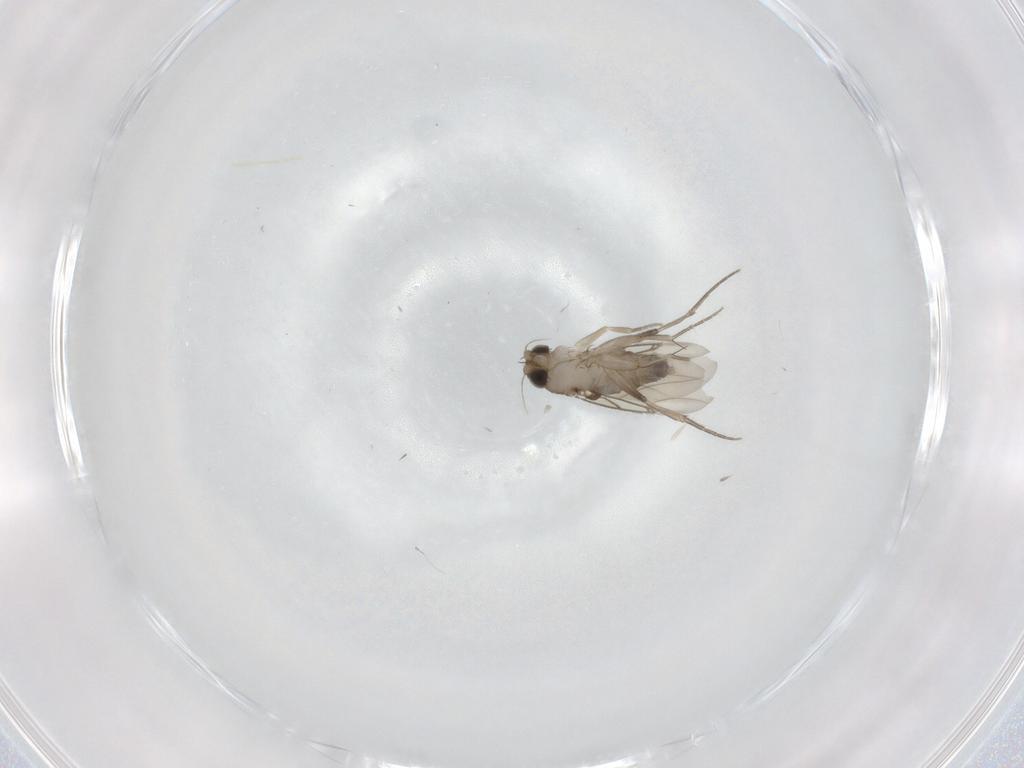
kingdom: Animalia
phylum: Arthropoda
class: Insecta
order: Diptera
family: Phoridae
